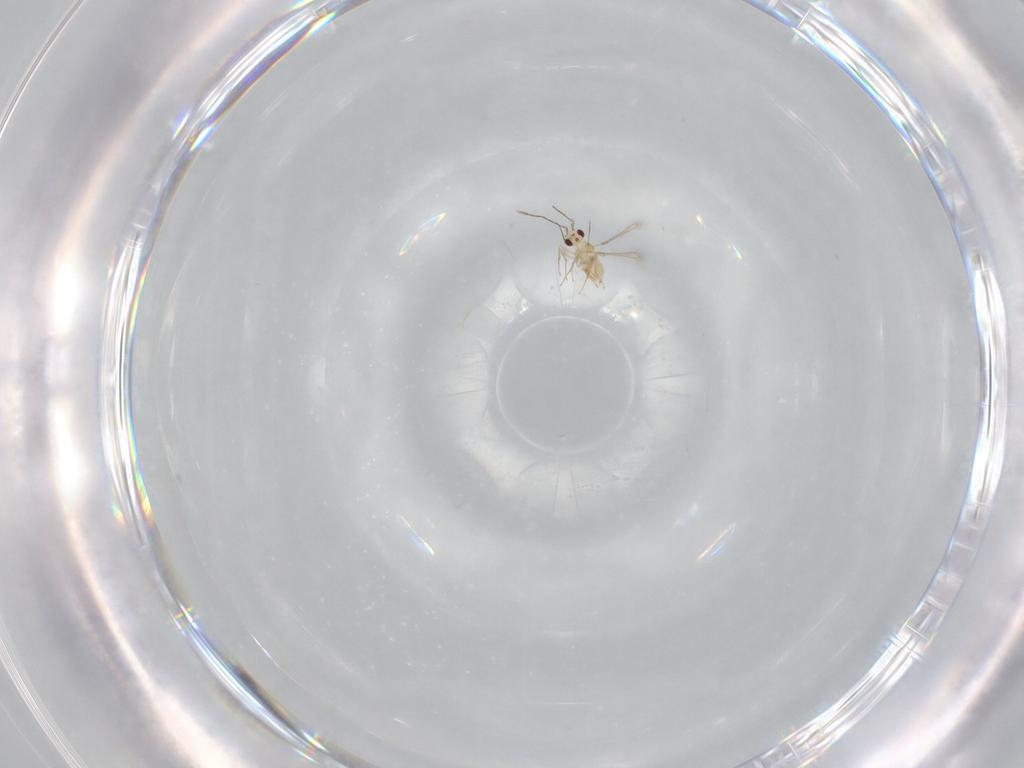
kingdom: Animalia
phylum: Arthropoda
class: Insecta
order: Hymenoptera
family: Mymaridae
